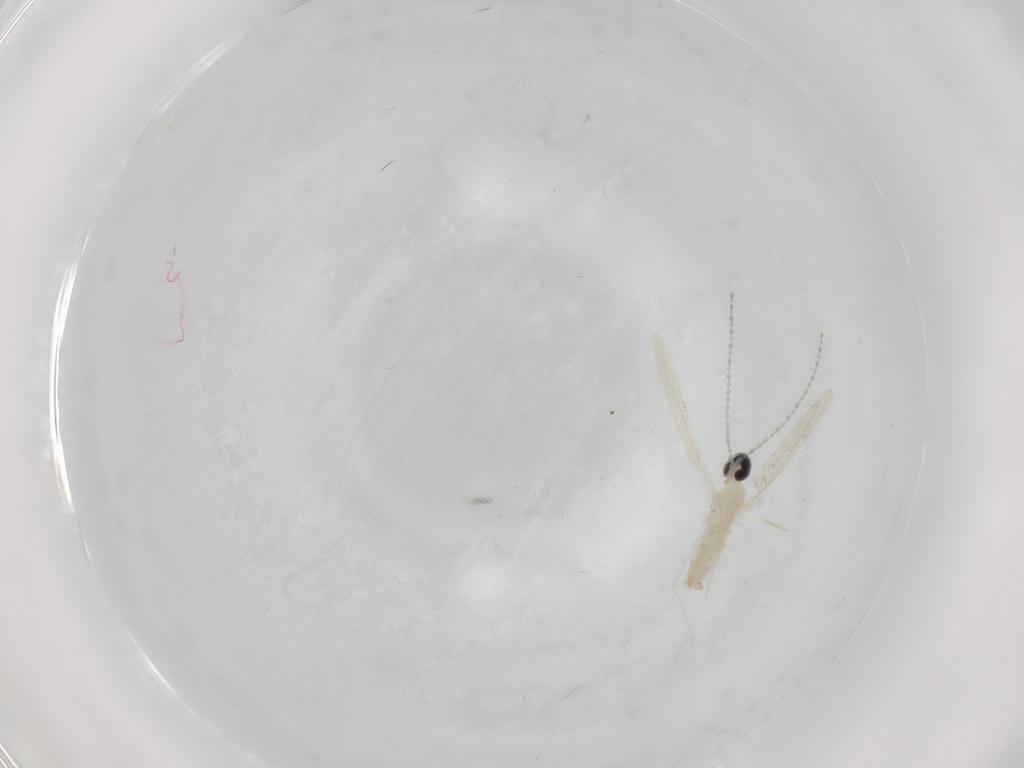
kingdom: Animalia
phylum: Arthropoda
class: Insecta
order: Diptera
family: Cecidomyiidae
